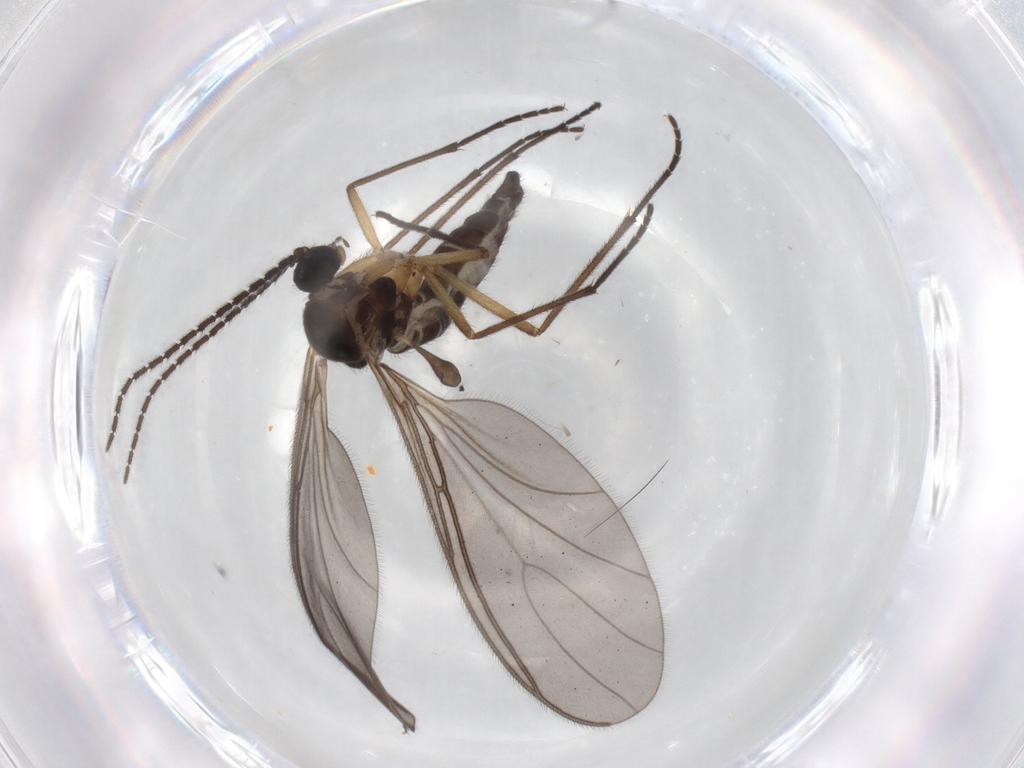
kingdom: Animalia
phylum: Arthropoda
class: Insecta
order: Diptera
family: Sciaridae
